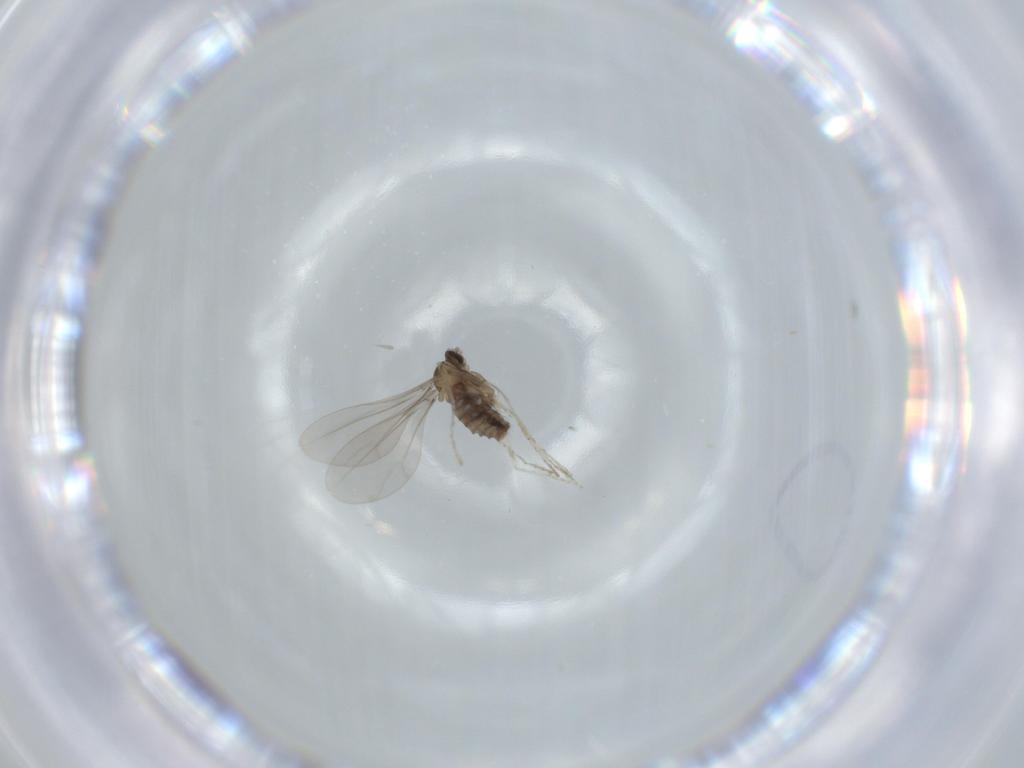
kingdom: Animalia
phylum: Arthropoda
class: Insecta
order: Diptera
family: Cecidomyiidae
